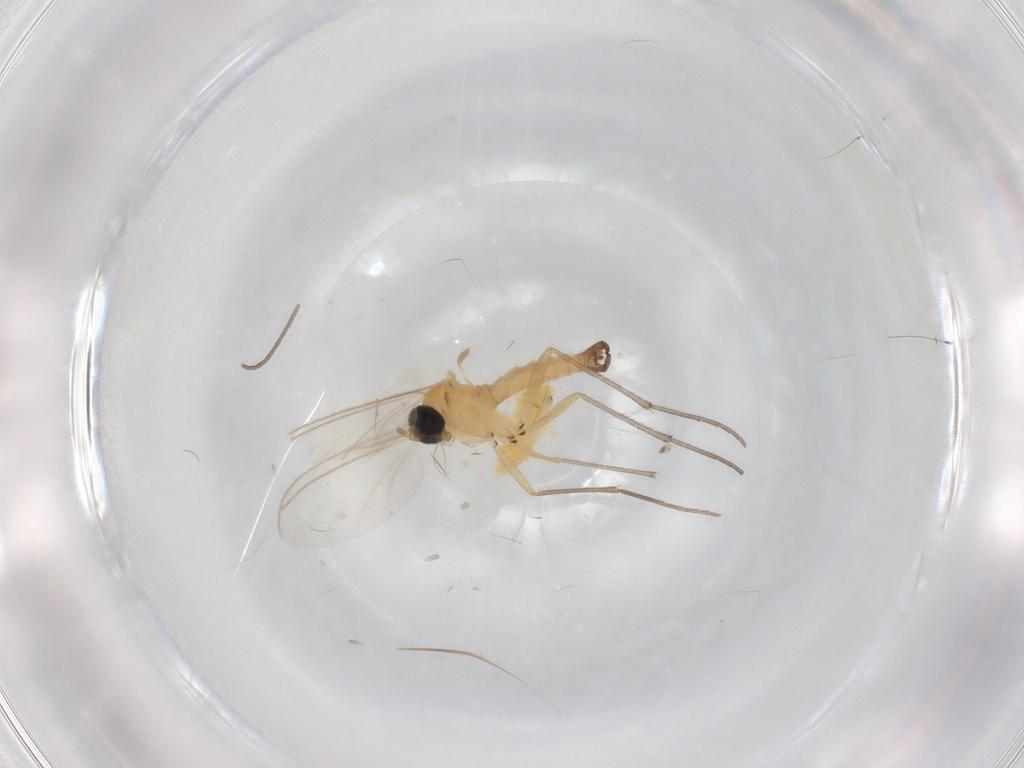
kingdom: Animalia
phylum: Arthropoda
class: Insecta
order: Diptera
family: Sciaridae
